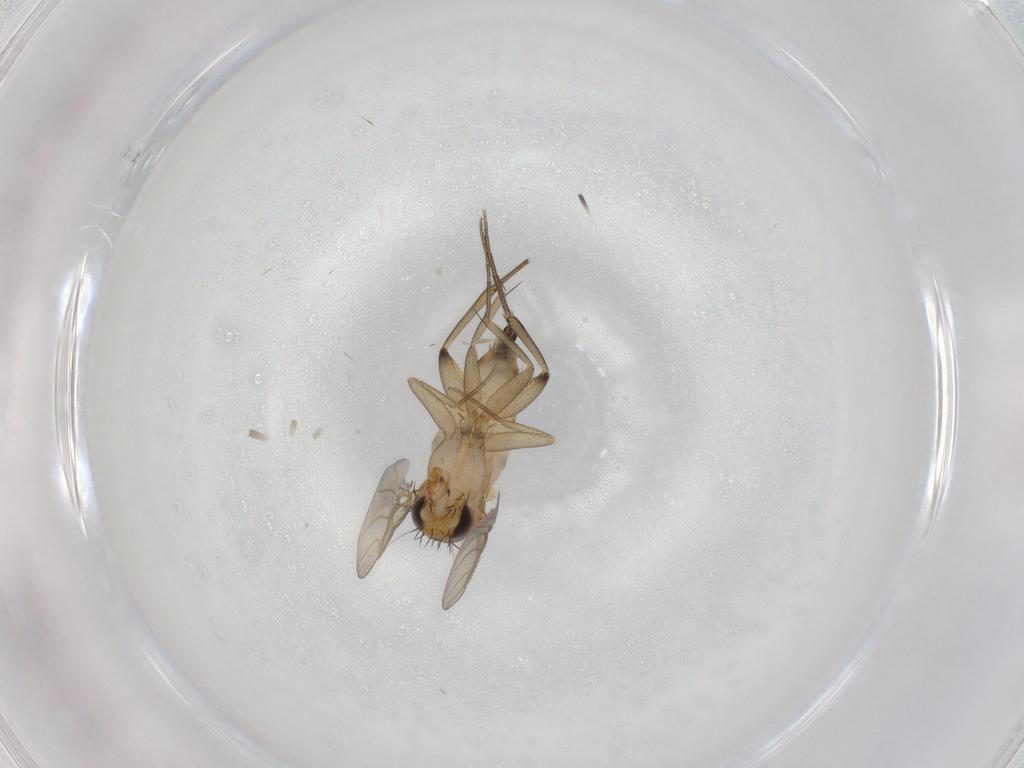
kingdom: Animalia
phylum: Arthropoda
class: Insecta
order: Diptera
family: Phoridae
